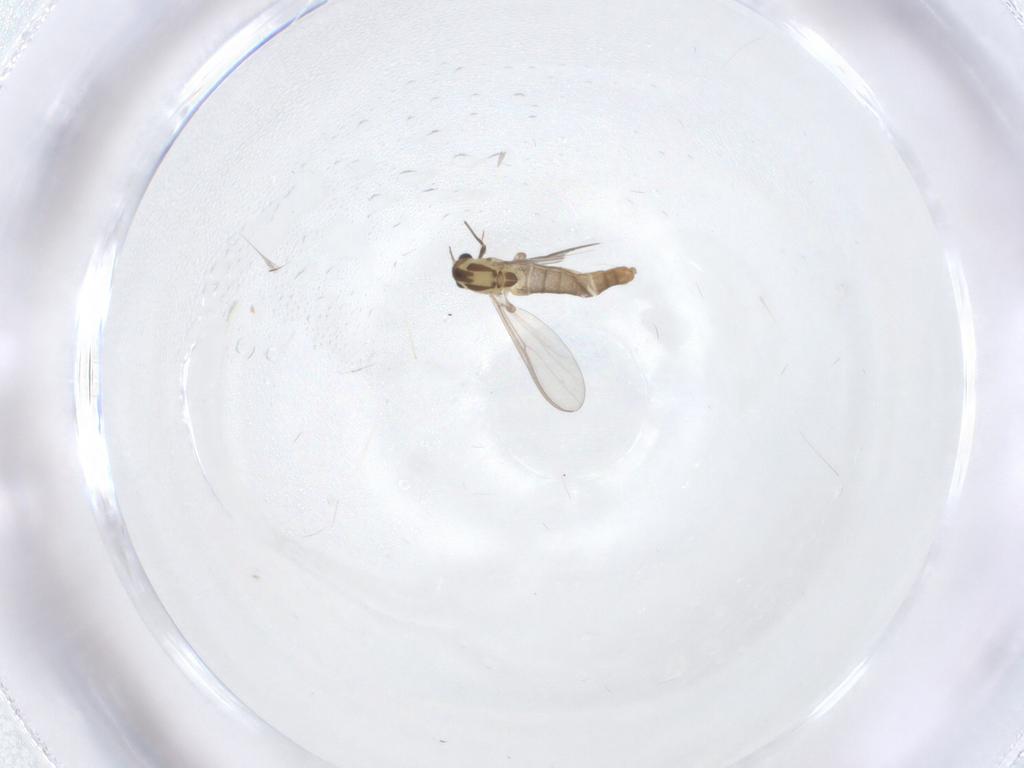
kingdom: Animalia
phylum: Arthropoda
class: Insecta
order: Diptera
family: Chironomidae
